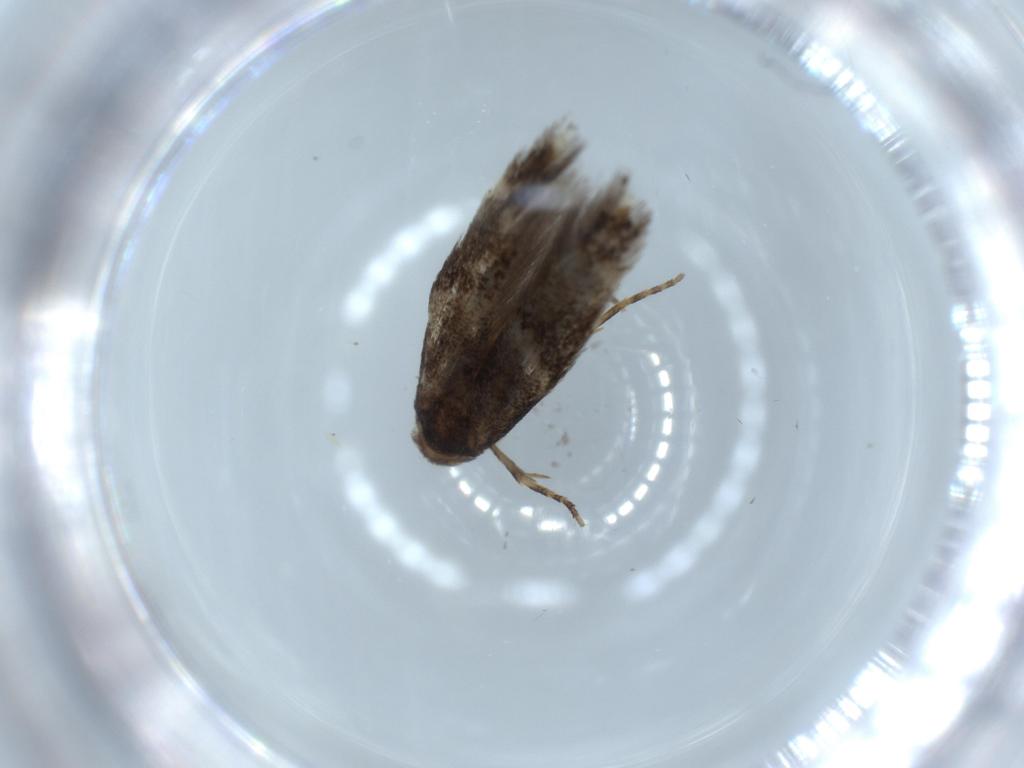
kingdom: Animalia
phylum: Arthropoda
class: Insecta
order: Lepidoptera
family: Elachistidae
